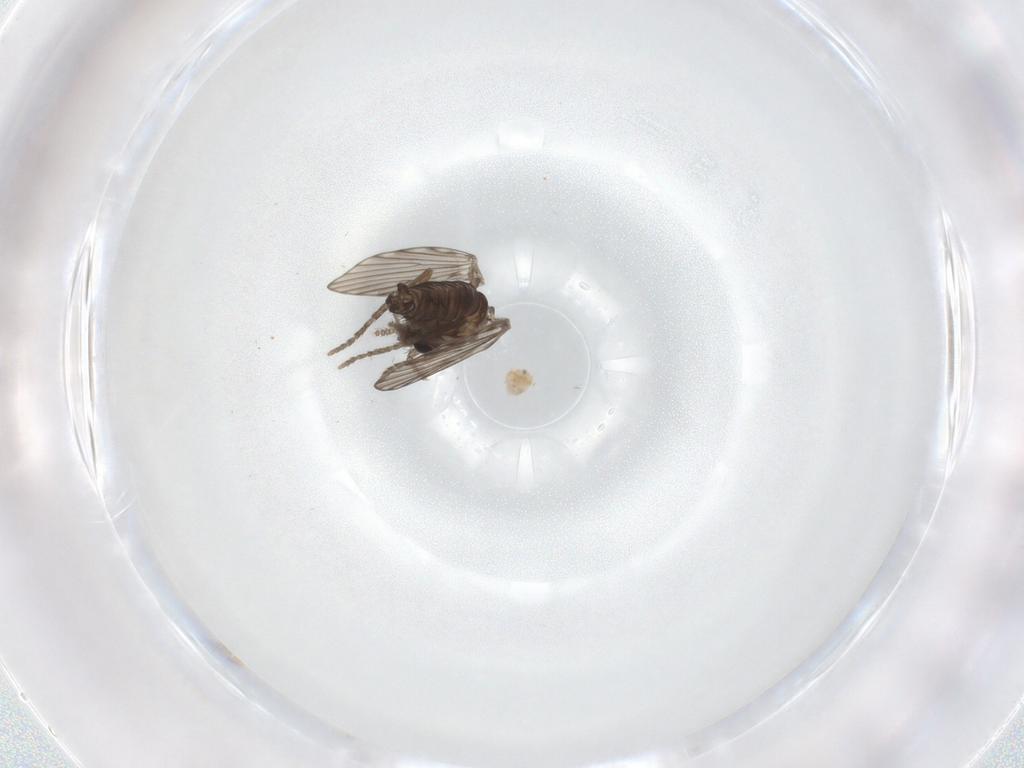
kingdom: Animalia
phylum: Arthropoda
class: Insecta
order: Diptera
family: Psychodidae
